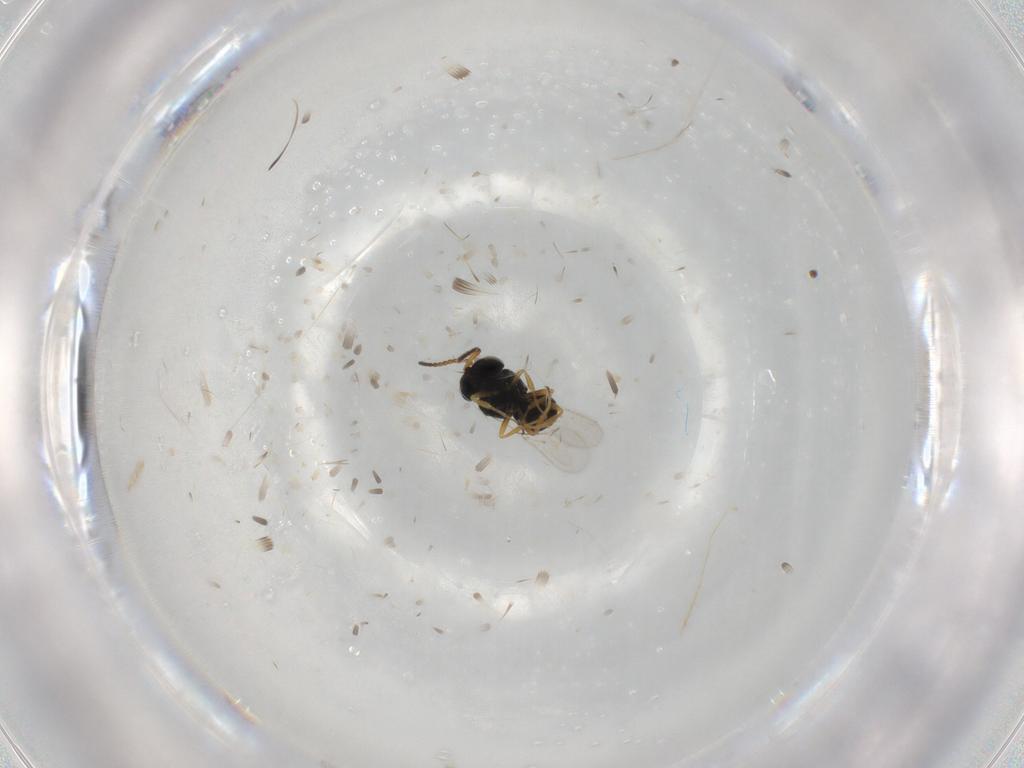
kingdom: Animalia
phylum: Arthropoda
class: Insecta
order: Hymenoptera
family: Scelionidae
